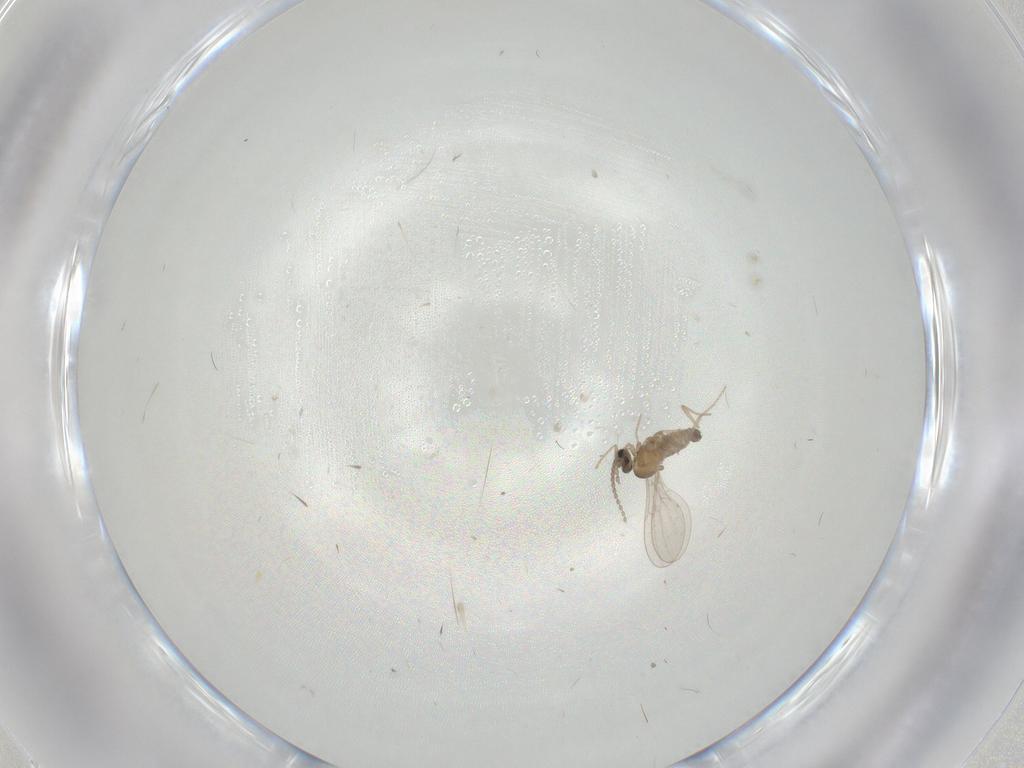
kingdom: Animalia
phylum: Arthropoda
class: Insecta
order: Diptera
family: Cecidomyiidae
